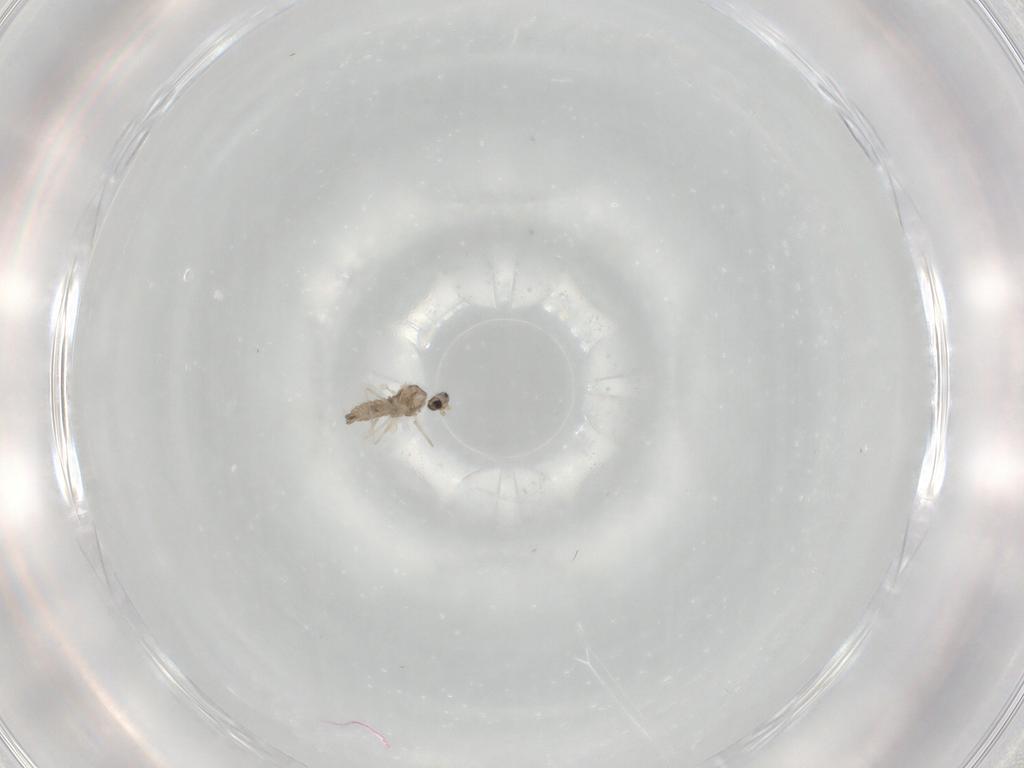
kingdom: Animalia
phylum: Arthropoda
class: Insecta
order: Diptera
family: Cecidomyiidae
